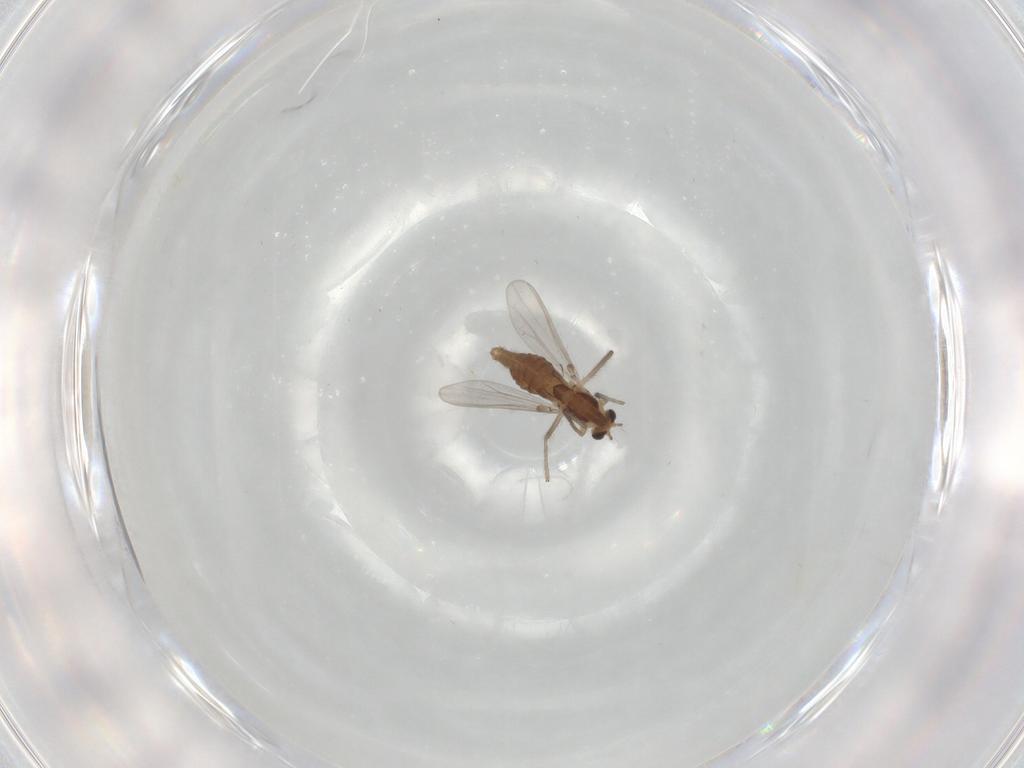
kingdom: Animalia
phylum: Arthropoda
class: Insecta
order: Diptera
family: Chironomidae
